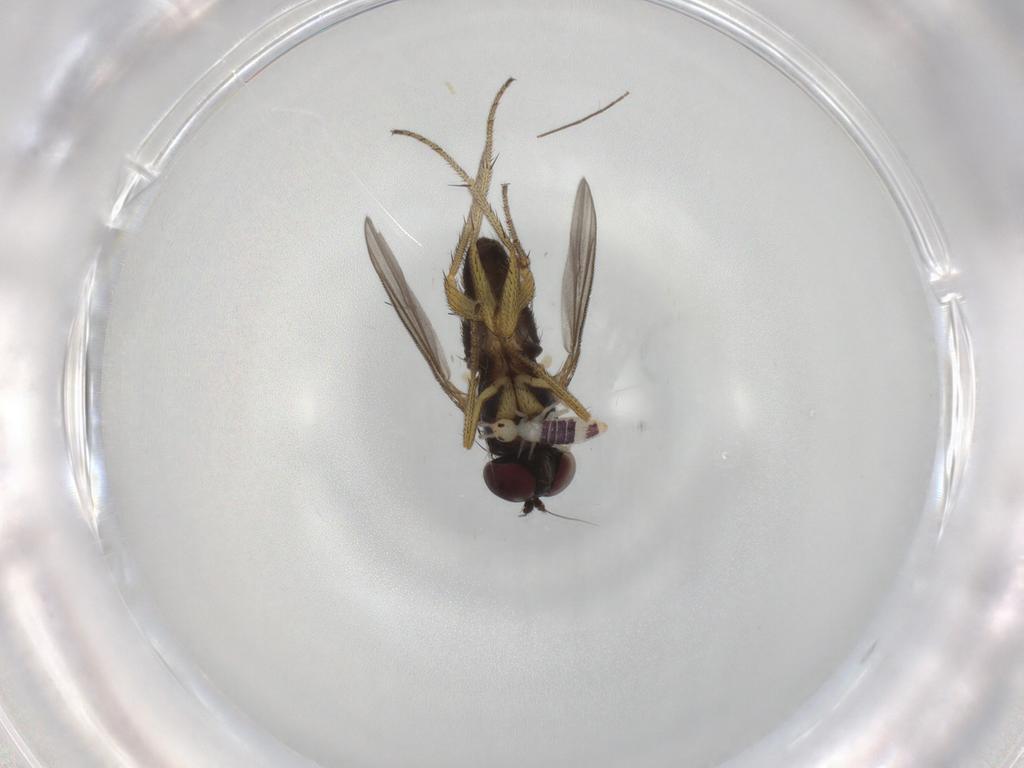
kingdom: Animalia
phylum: Arthropoda
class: Insecta
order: Diptera
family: Chironomidae
